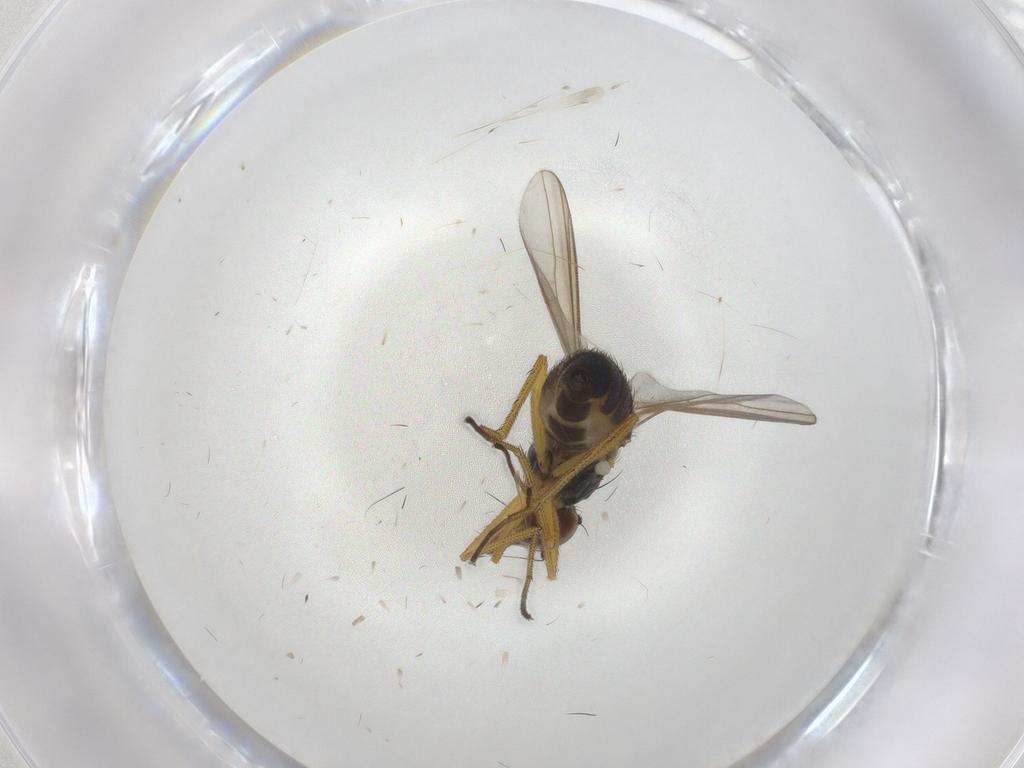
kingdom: Animalia
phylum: Arthropoda
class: Insecta
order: Diptera
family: Dolichopodidae
